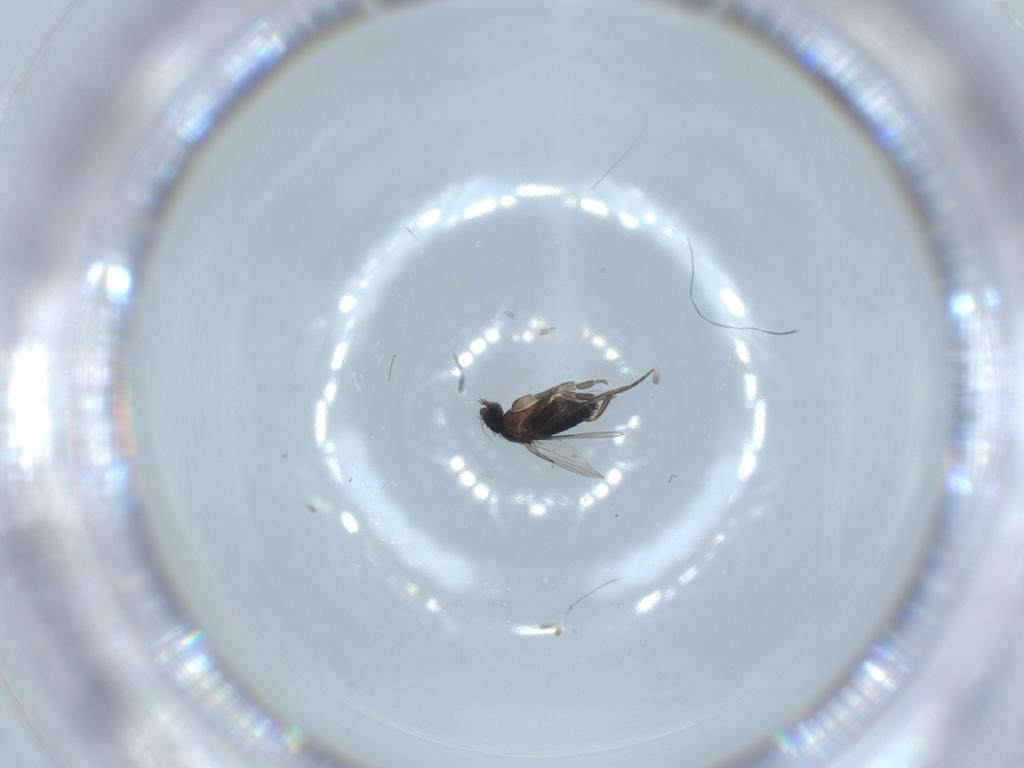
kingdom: Animalia
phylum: Arthropoda
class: Insecta
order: Diptera
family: Phoridae
